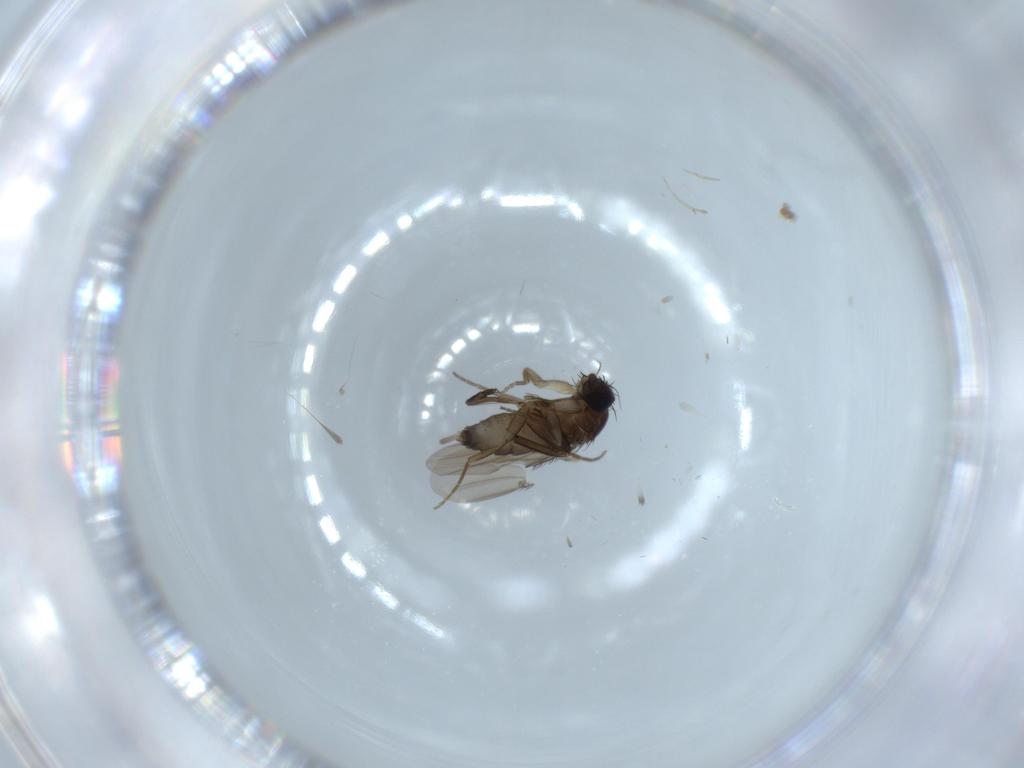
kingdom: Animalia
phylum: Arthropoda
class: Insecta
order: Diptera
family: Phoridae
